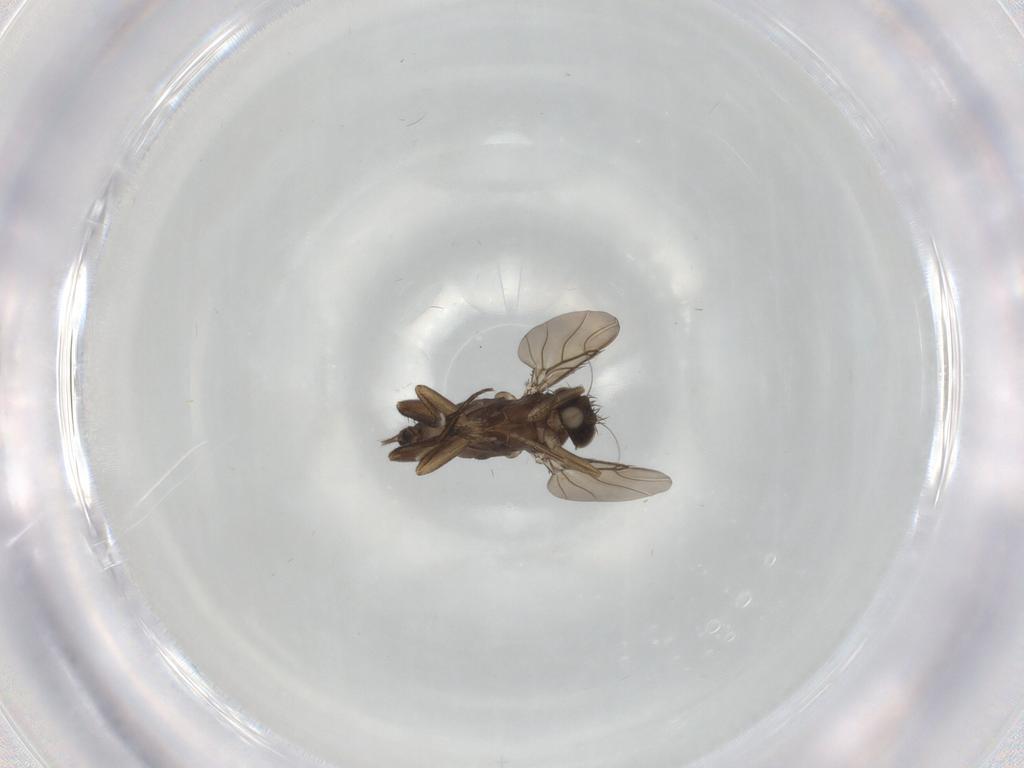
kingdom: Animalia
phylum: Arthropoda
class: Insecta
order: Diptera
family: Phoridae
